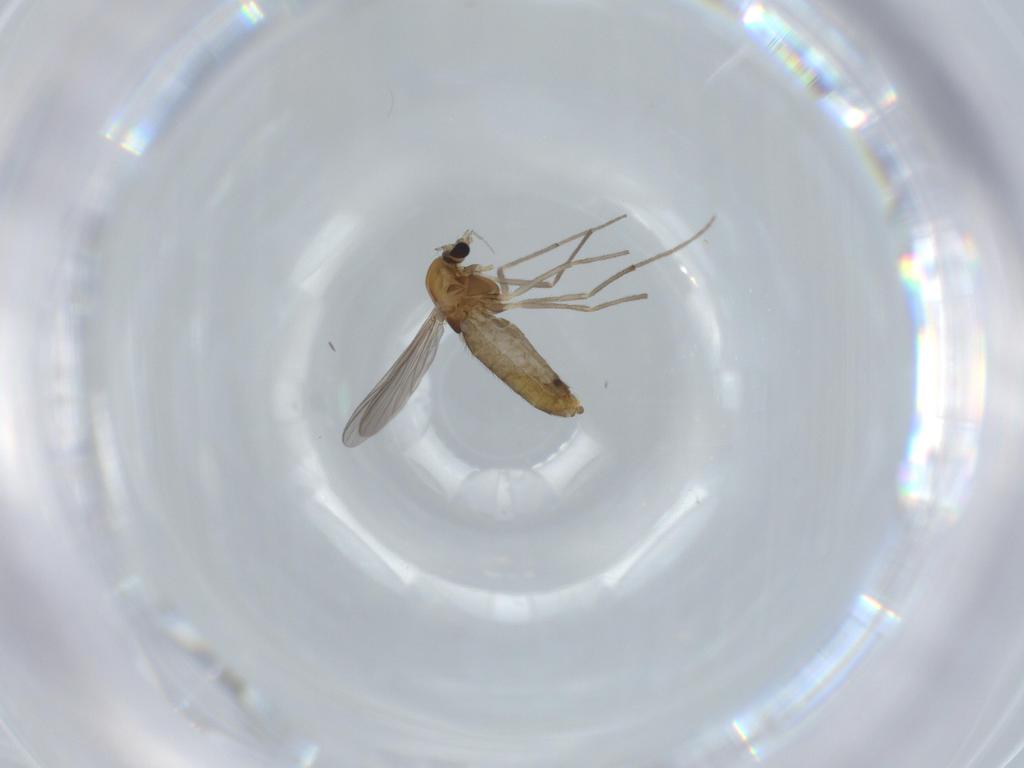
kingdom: Animalia
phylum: Arthropoda
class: Insecta
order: Diptera
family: Chironomidae
